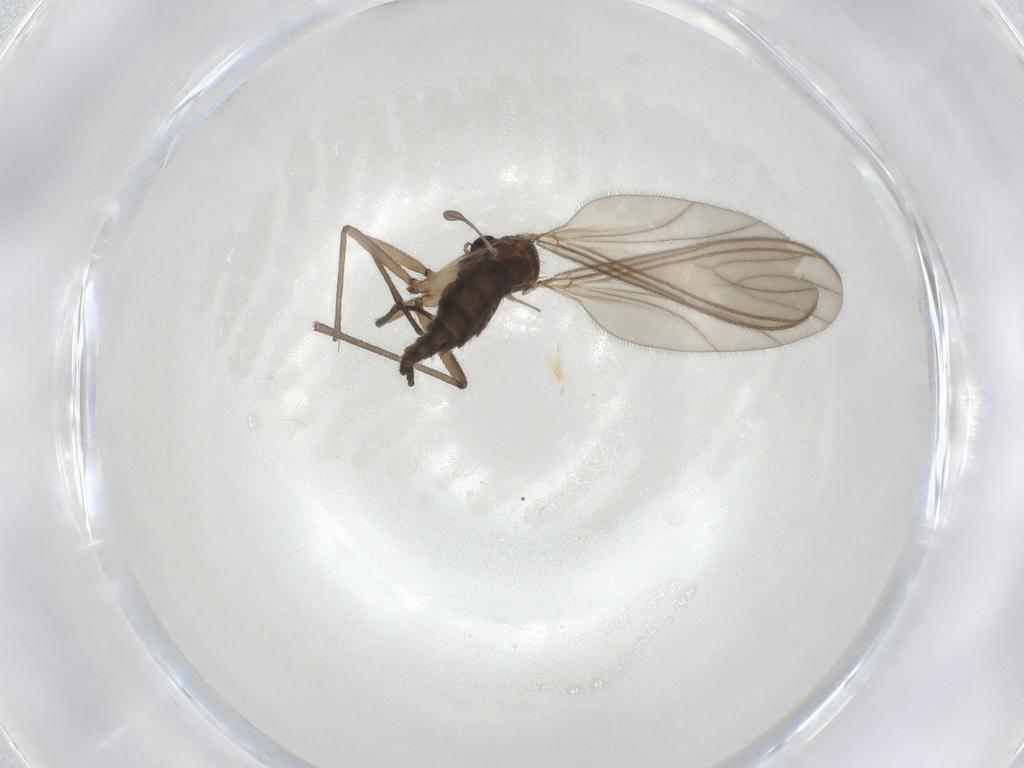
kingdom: Animalia
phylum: Arthropoda
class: Insecta
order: Diptera
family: Sciaridae
